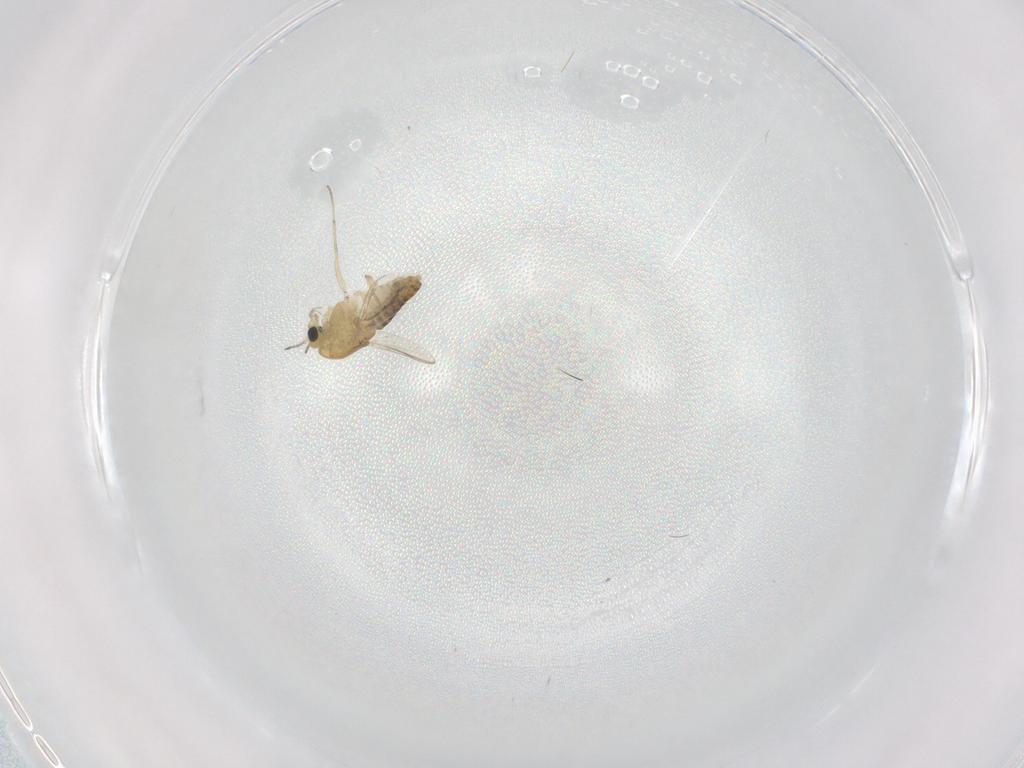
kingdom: Animalia
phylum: Arthropoda
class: Insecta
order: Diptera
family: Chironomidae
